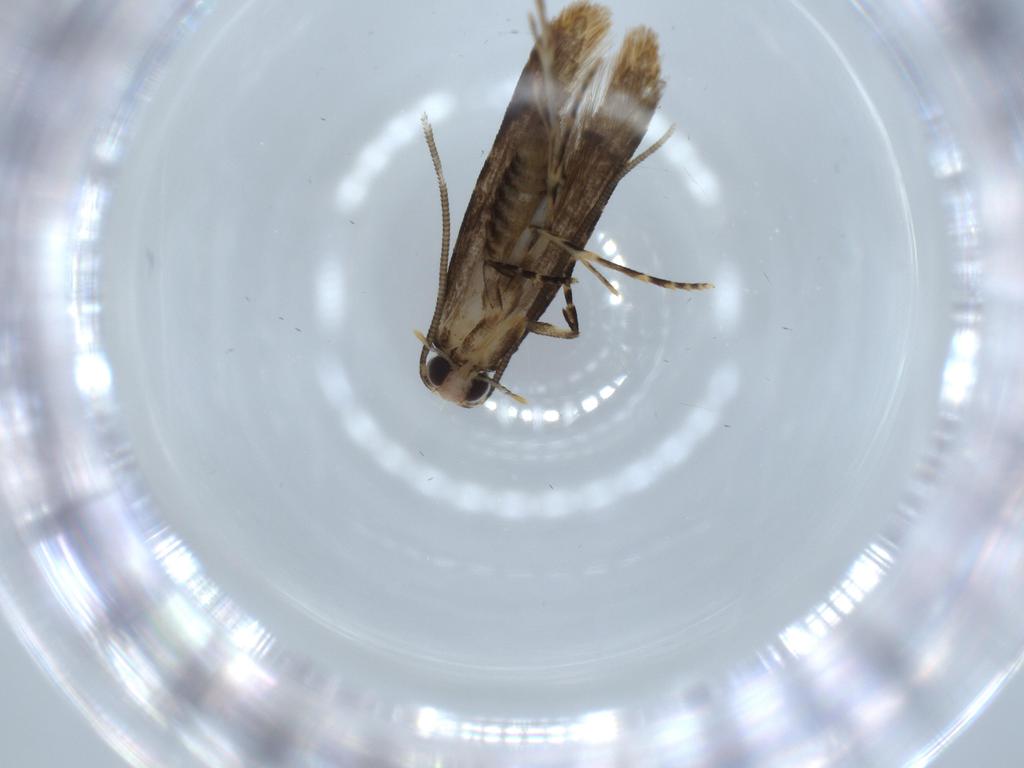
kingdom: Animalia
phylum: Arthropoda
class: Insecta
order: Lepidoptera
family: Tineidae
